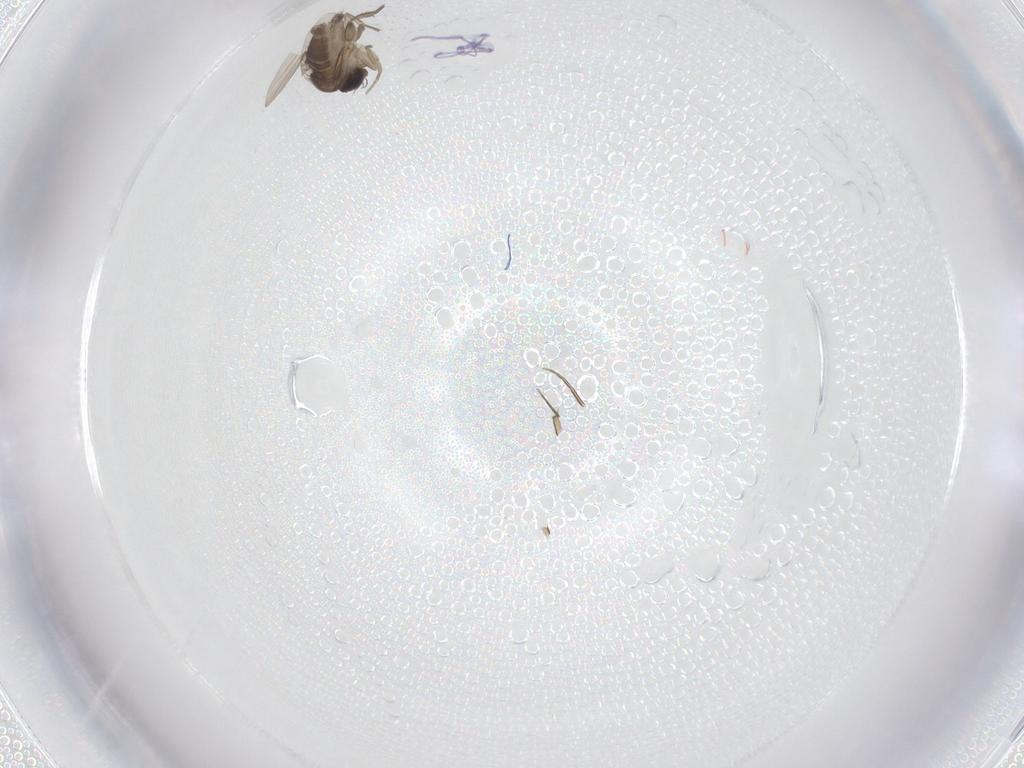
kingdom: Animalia
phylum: Arthropoda
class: Insecta
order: Diptera
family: Phoridae
